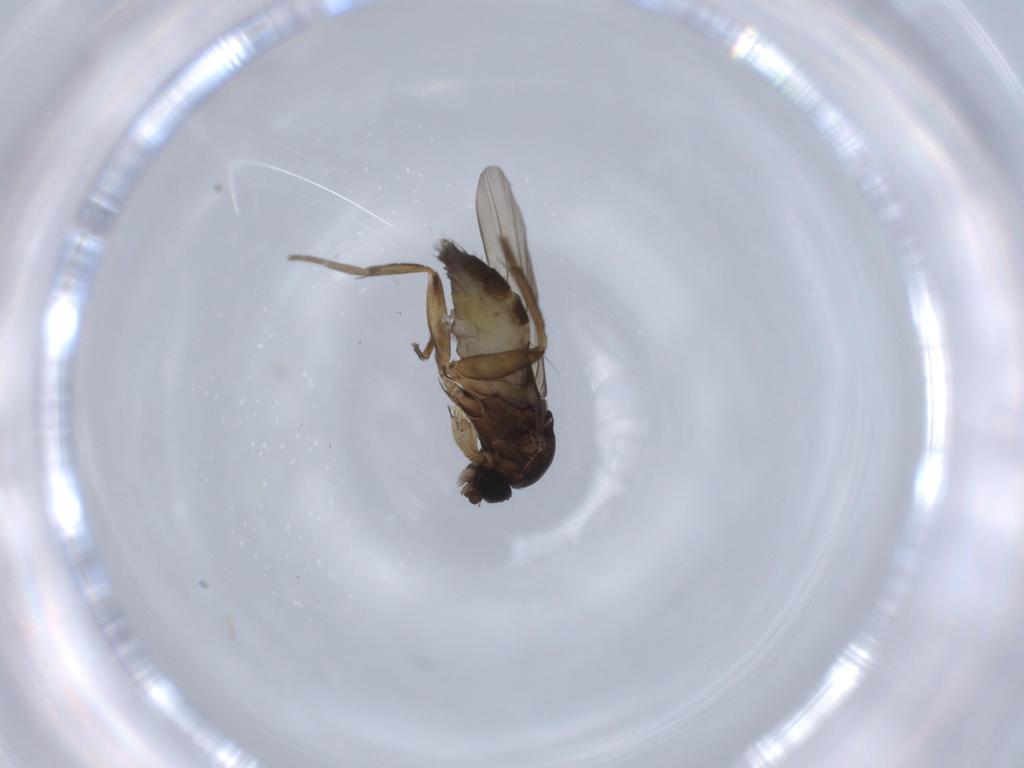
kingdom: Animalia
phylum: Arthropoda
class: Insecta
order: Diptera
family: Phoridae
